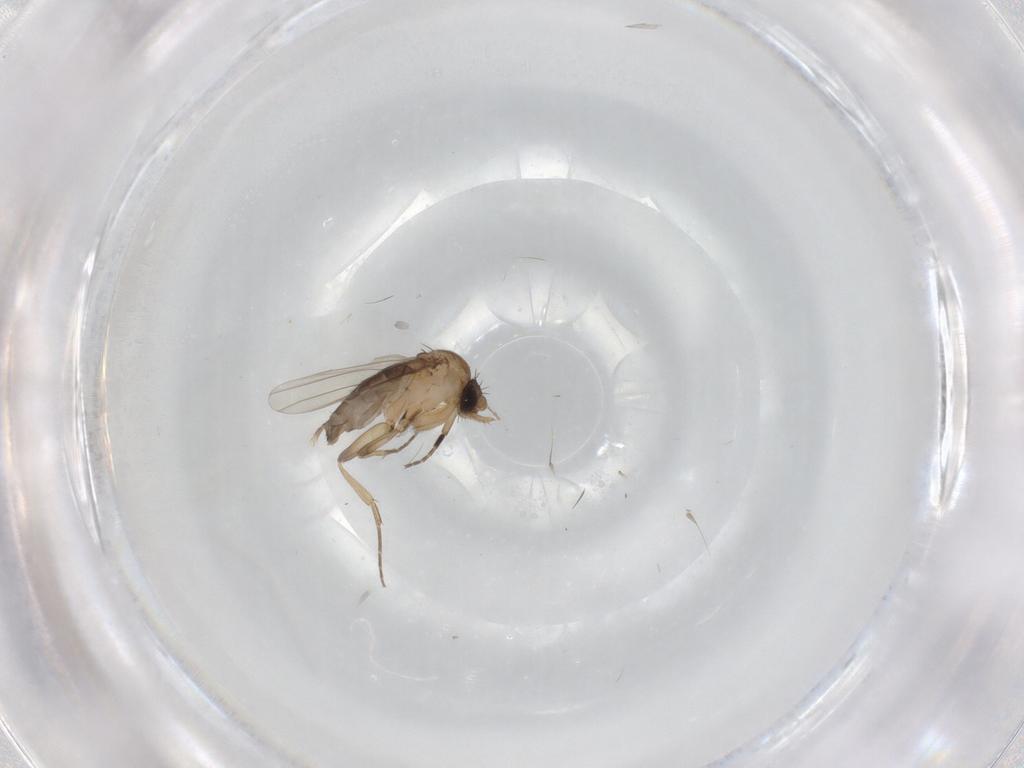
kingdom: Animalia
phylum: Arthropoda
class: Insecta
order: Diptera
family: Phoridae
